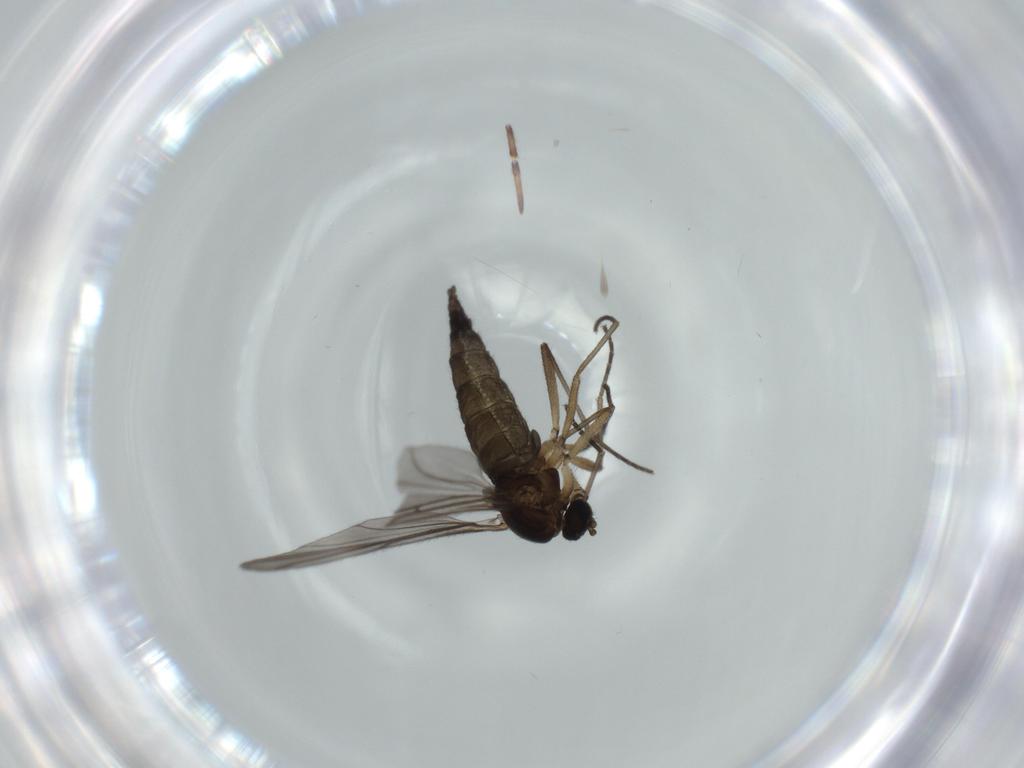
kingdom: Animalia
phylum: Arthropoda
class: Insecta
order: Diptera
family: Sciaridae
